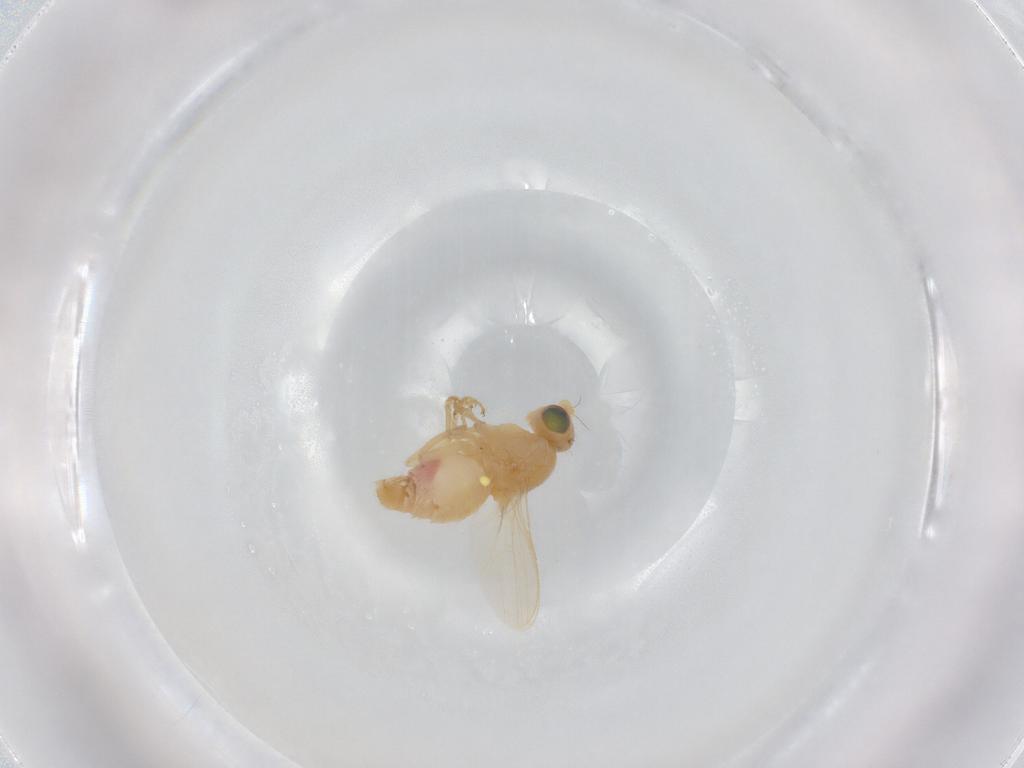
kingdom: Animalia
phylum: Arthropoda
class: Insecta
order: Diptera
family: Chyromyidae
